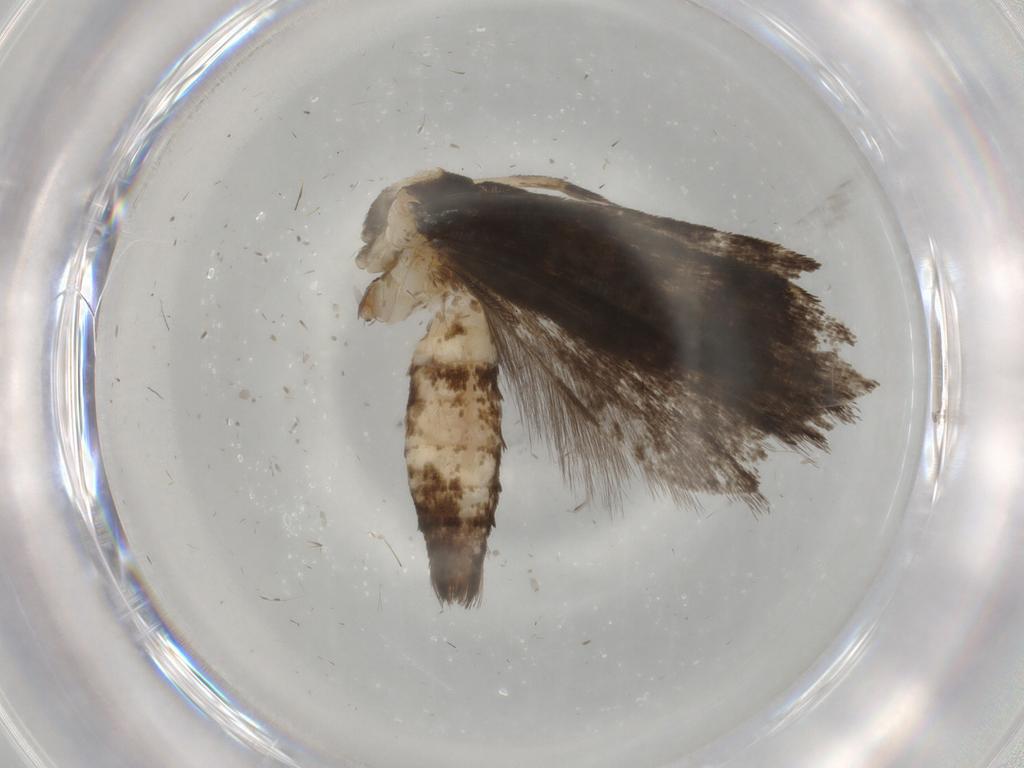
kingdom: Animalia
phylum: Arthropoda
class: Insecta
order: Lepidoptera
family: Gelechiidae
